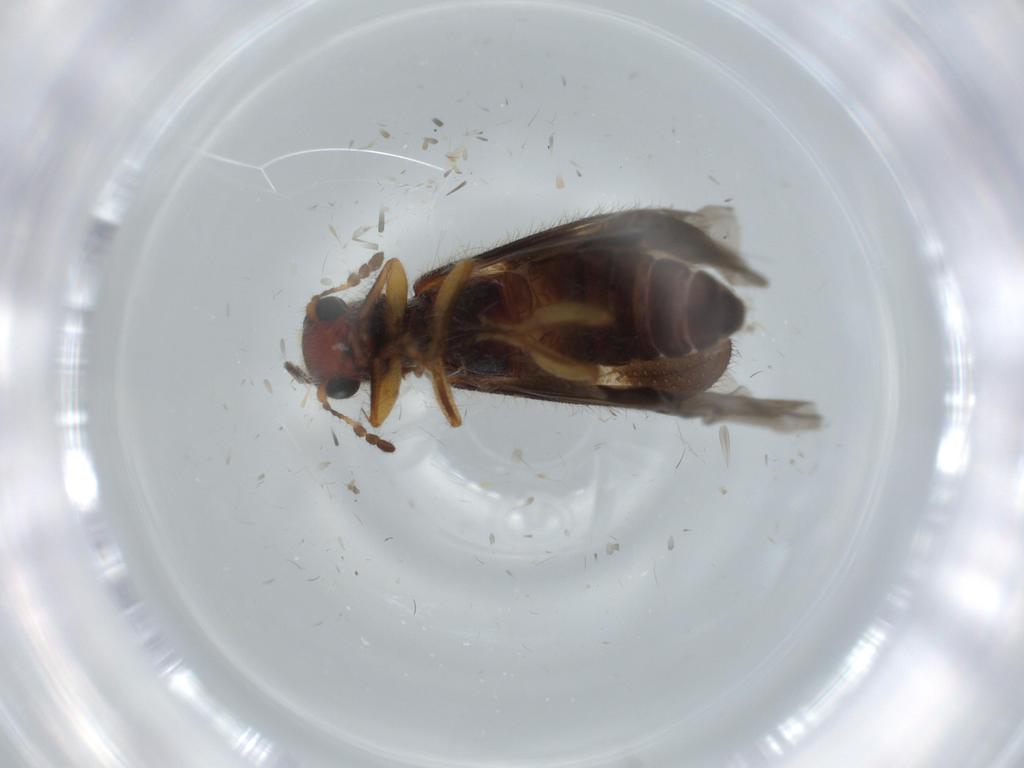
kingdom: Animalia
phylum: Arthropoda
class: Insecta
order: Coleoptera
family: Cleridae
